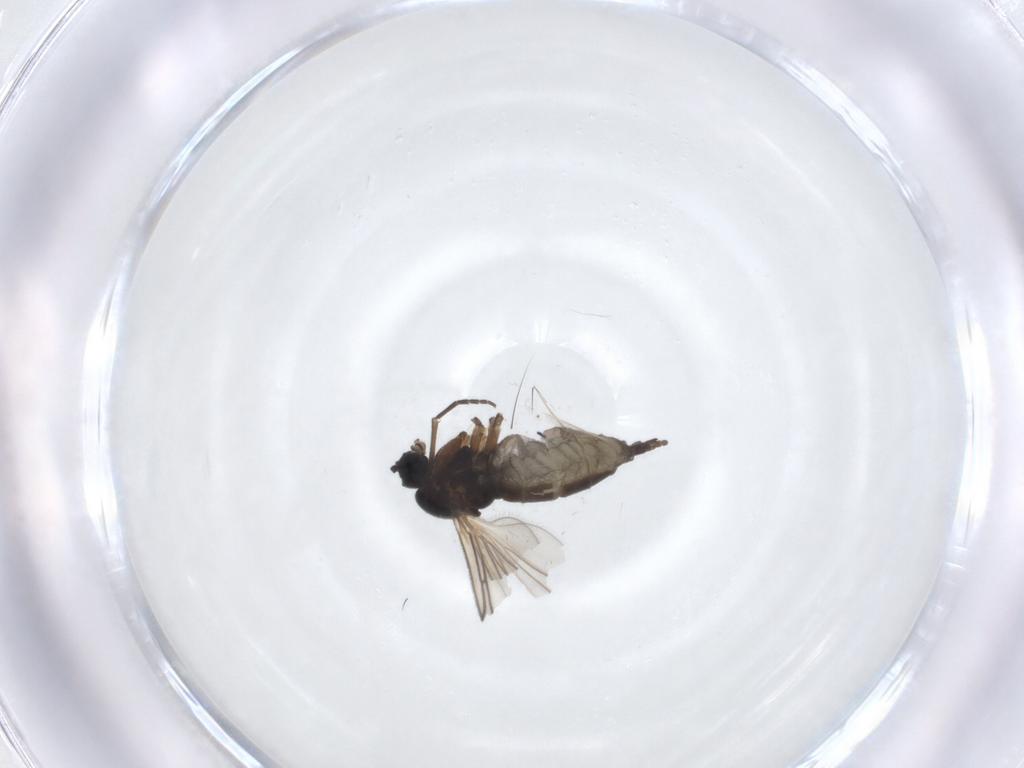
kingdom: Animalia
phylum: Arthropoda
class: Insecta
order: Diptera
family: Sciaridae
